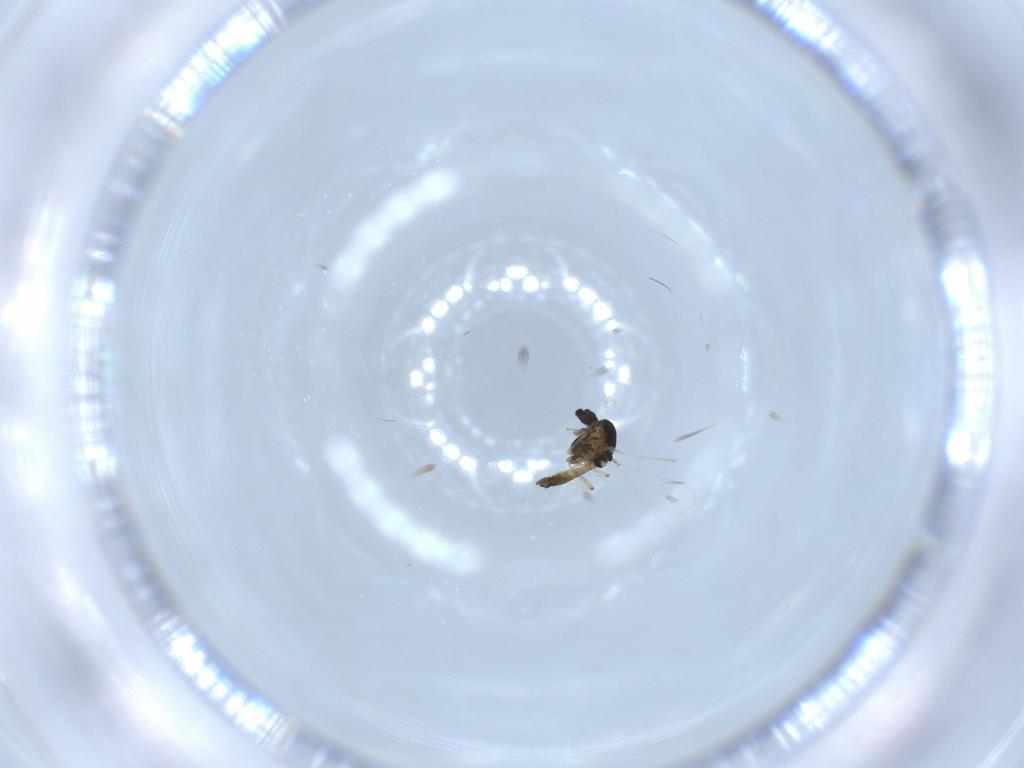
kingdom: Animalia
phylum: Arthropoda
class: Insecta
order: Diptera
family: Chironomidae
